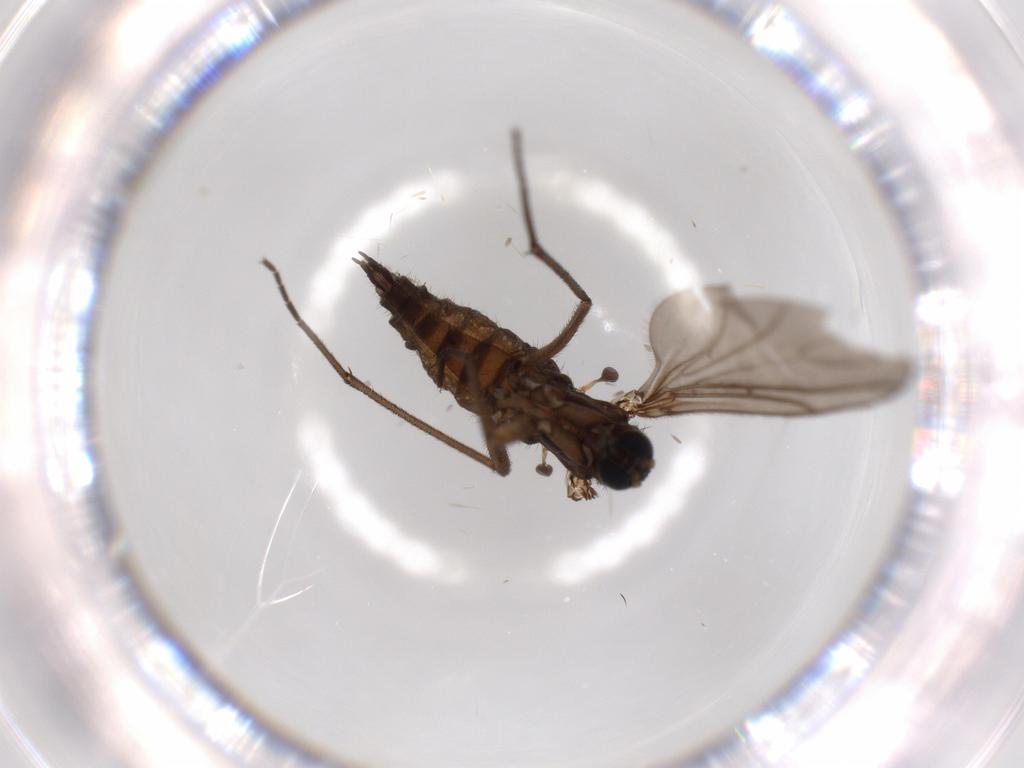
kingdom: Animalia
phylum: Arthropoda
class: Insecta
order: Diptera
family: Sciaridae
